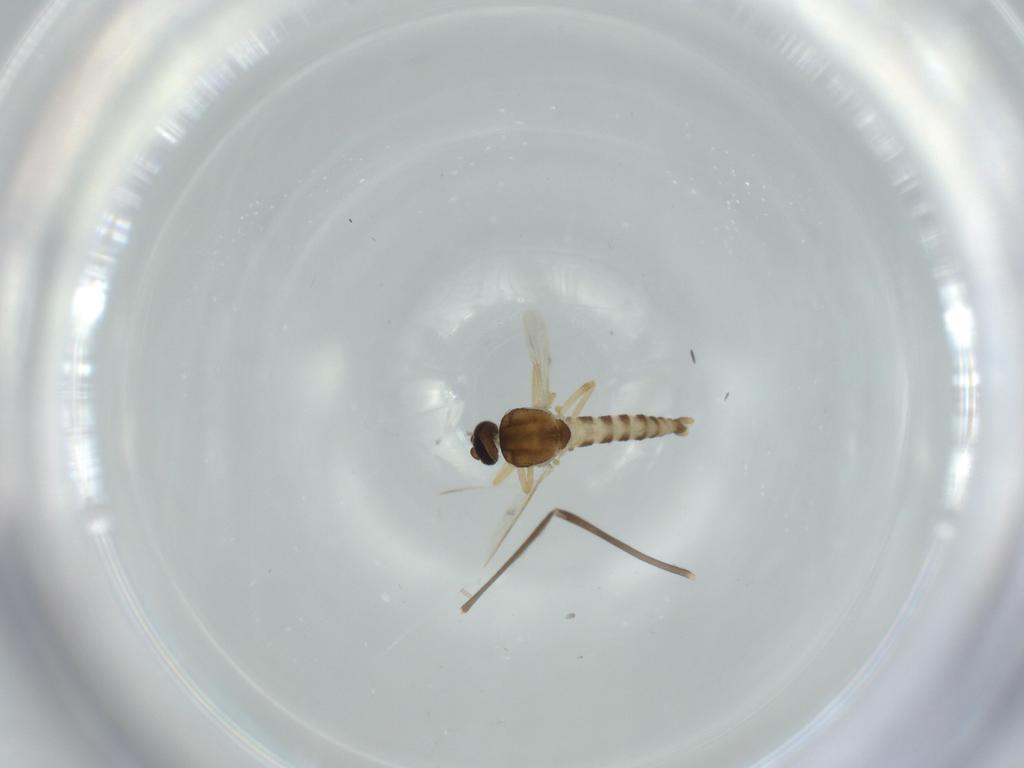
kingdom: Animalia
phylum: Arthropoda
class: Insecta
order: Diptera
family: Ceratopogonidae
